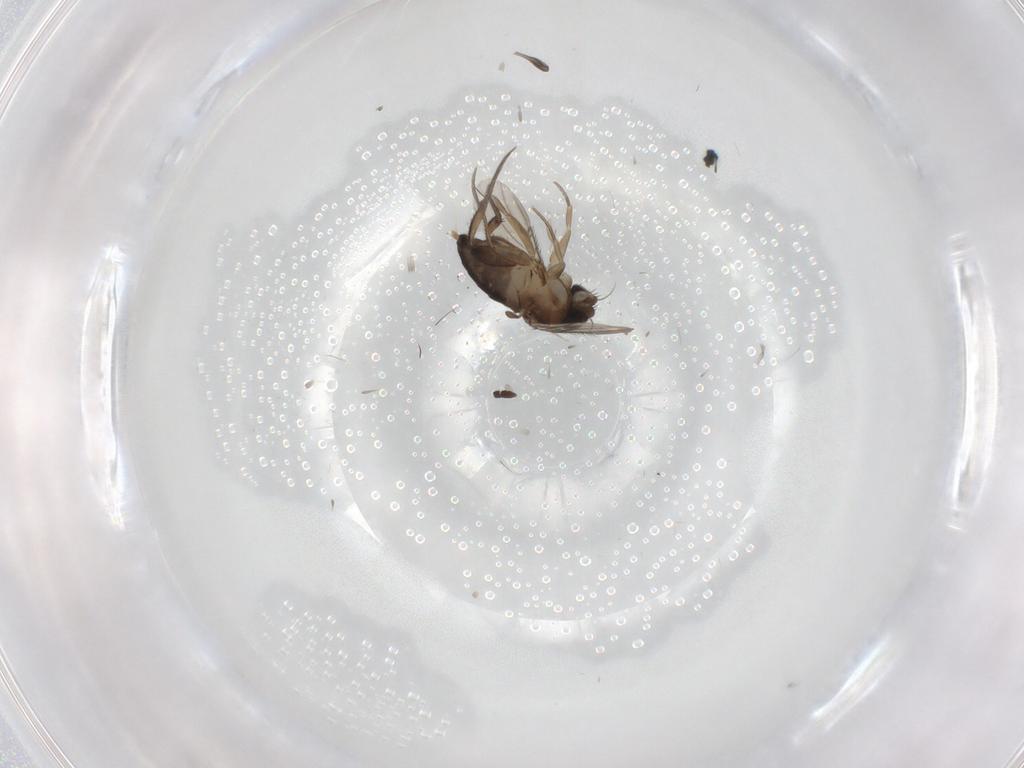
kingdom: Animalia
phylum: Arthropoda
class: Insecta
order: Diptera
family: Phoridae
